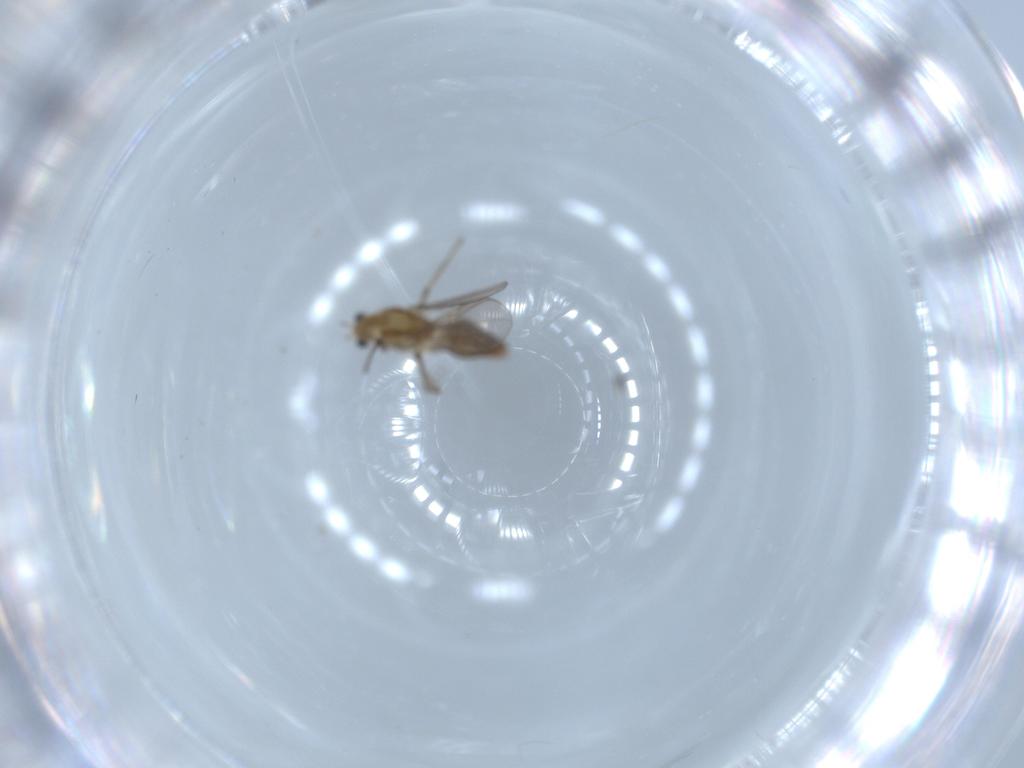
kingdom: Animalia
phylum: Arthropoda
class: Insecta
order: Diptera
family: Chironomidae
